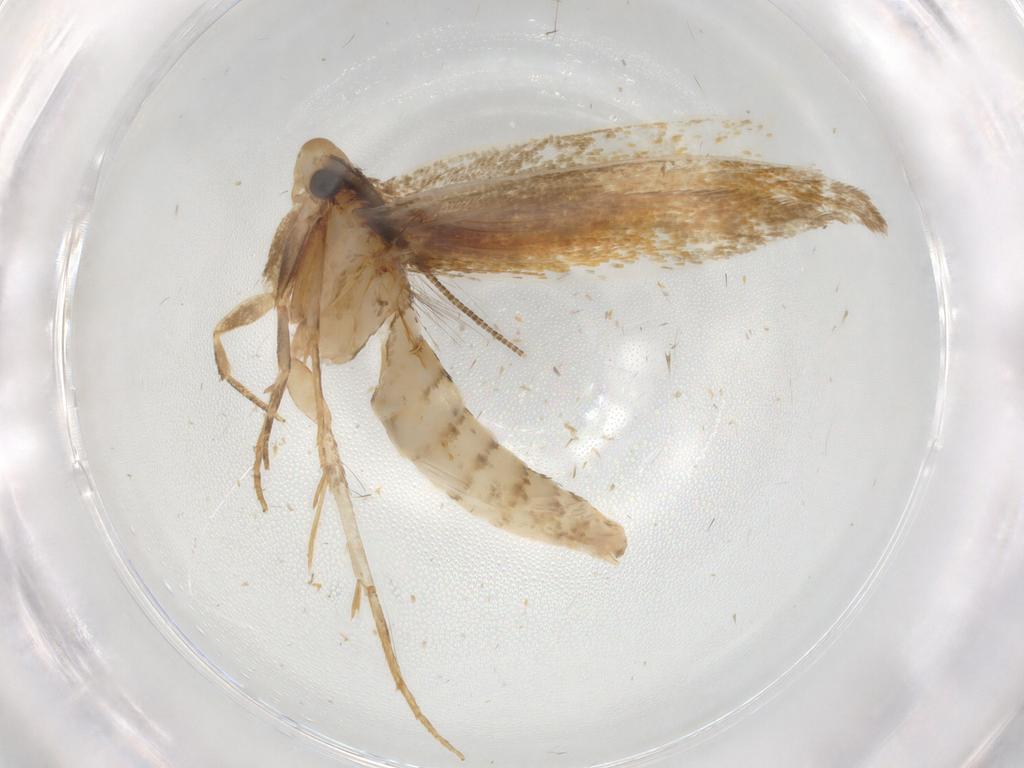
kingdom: Animalia
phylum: Arthropoda
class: Insecta
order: Lepidoptera
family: Tineidae
